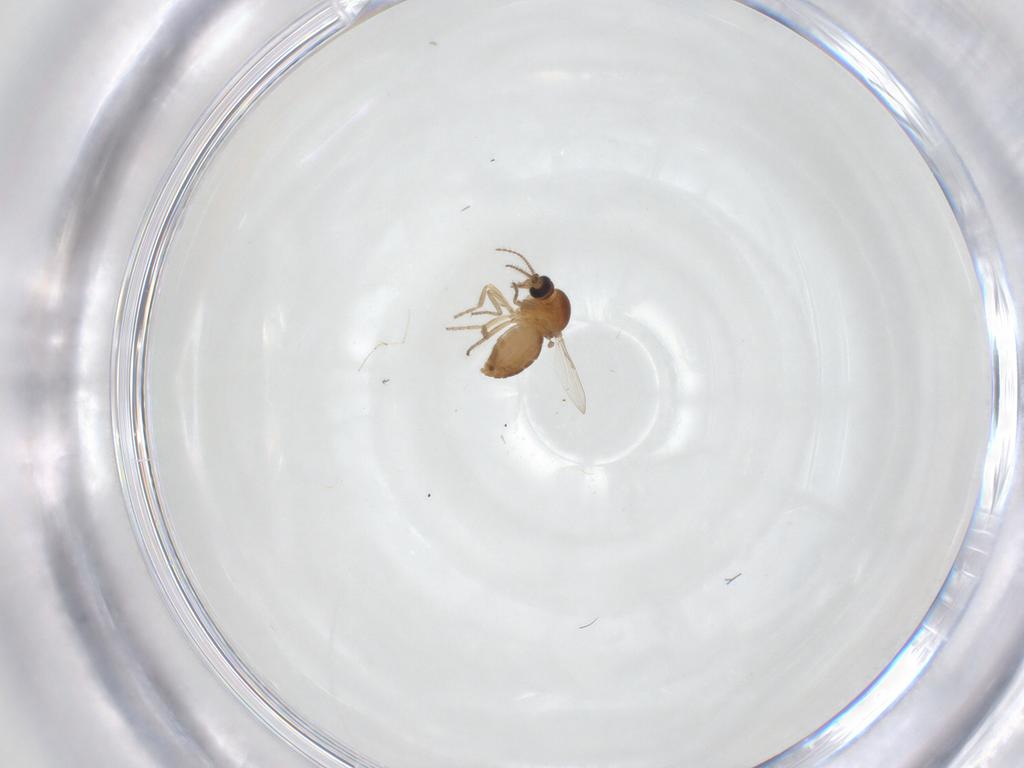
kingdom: Animalia
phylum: Arthropoda
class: Insecta
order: Diptera
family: Ceratopogonidae
